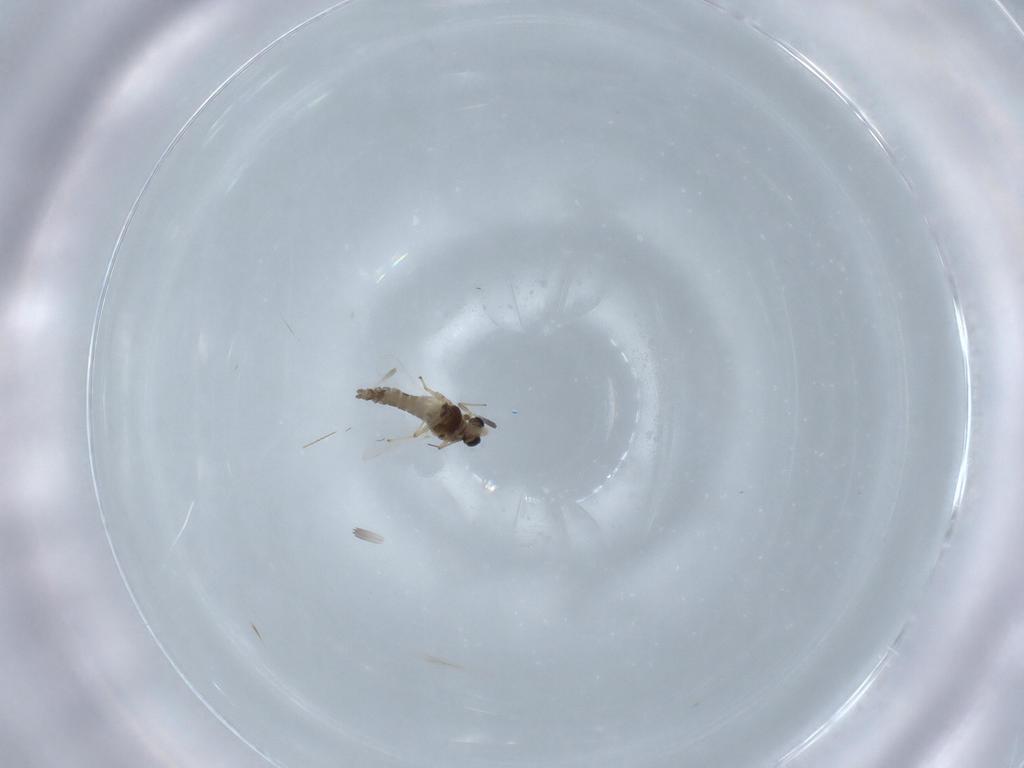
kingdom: Animalia
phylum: Arthropoda
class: Insecta
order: Diptera
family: Chironomidae
